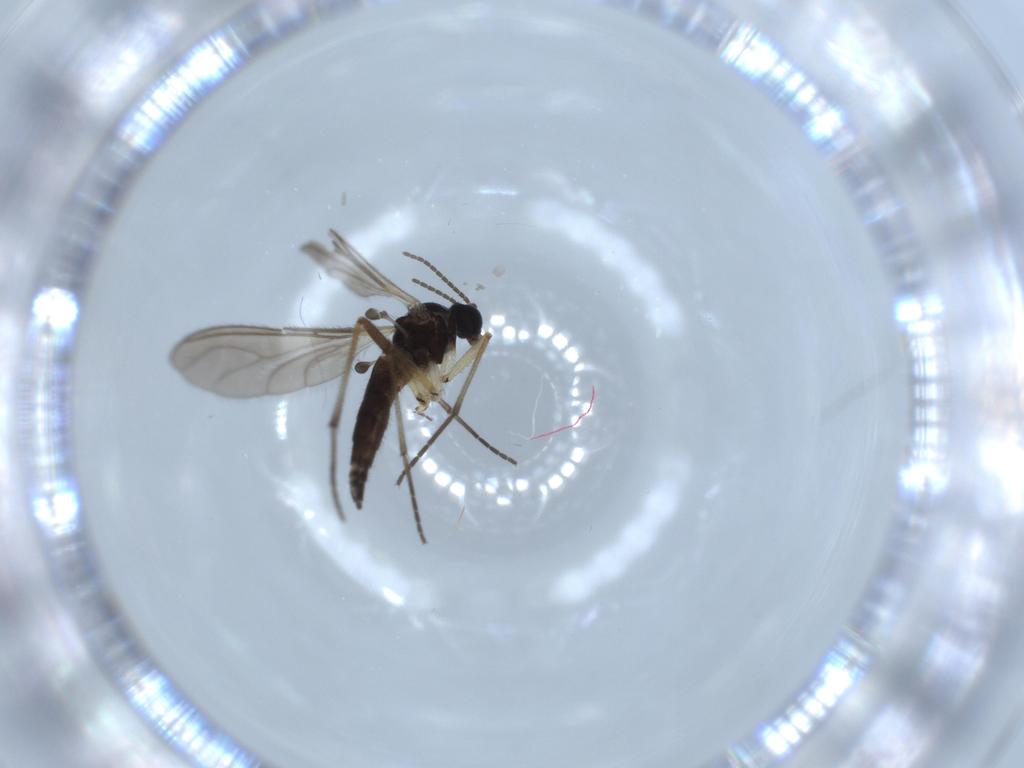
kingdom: Animalia
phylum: Arthropoda
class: Insecta
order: Diptera
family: Sciaridae
